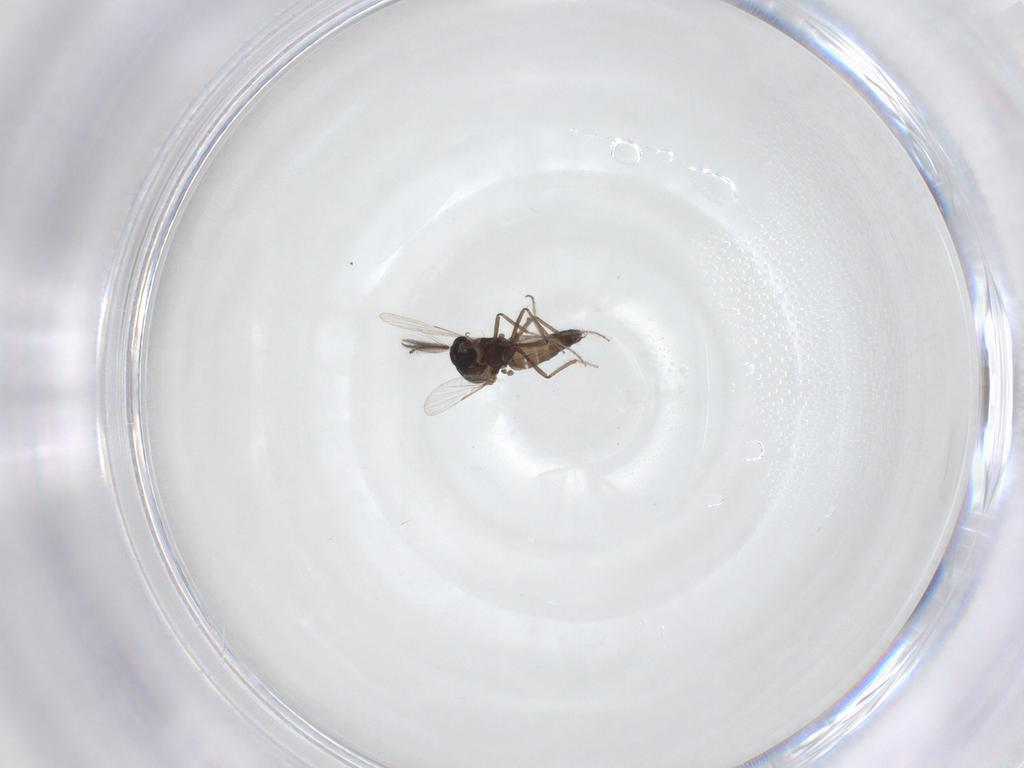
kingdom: Animalia
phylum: Arthropoda
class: Insecta
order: Diptera
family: Ceratopogonidae
